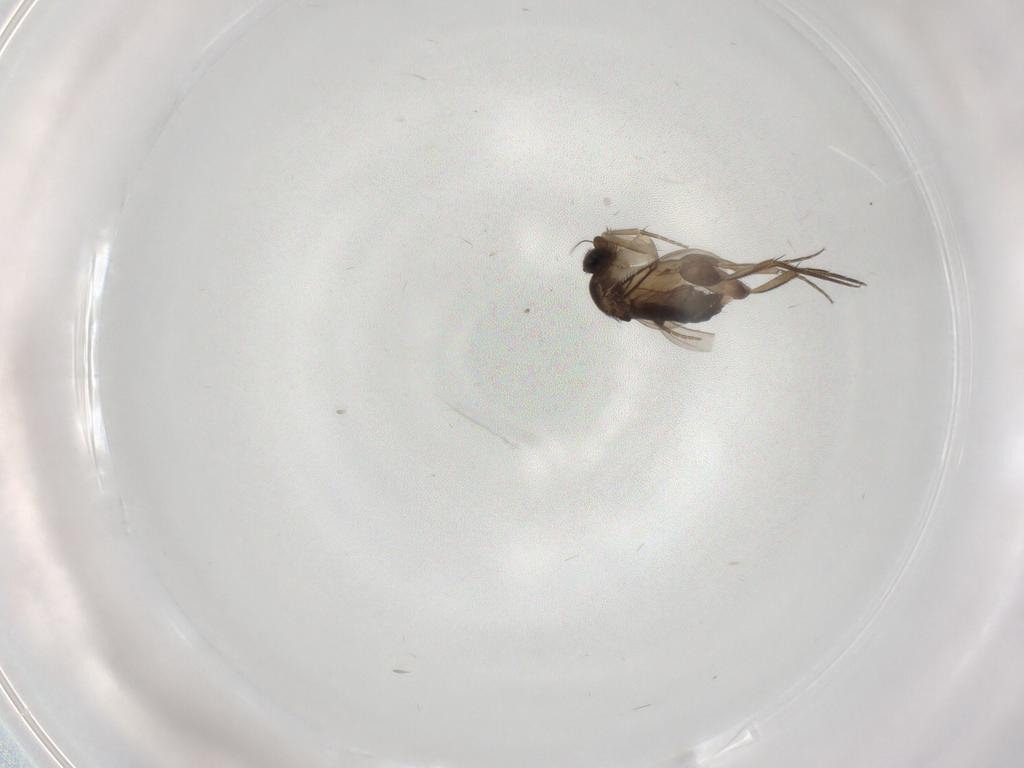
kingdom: Animalia
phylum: Arthropoda
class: Insecta
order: Diptera
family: Phoridae
